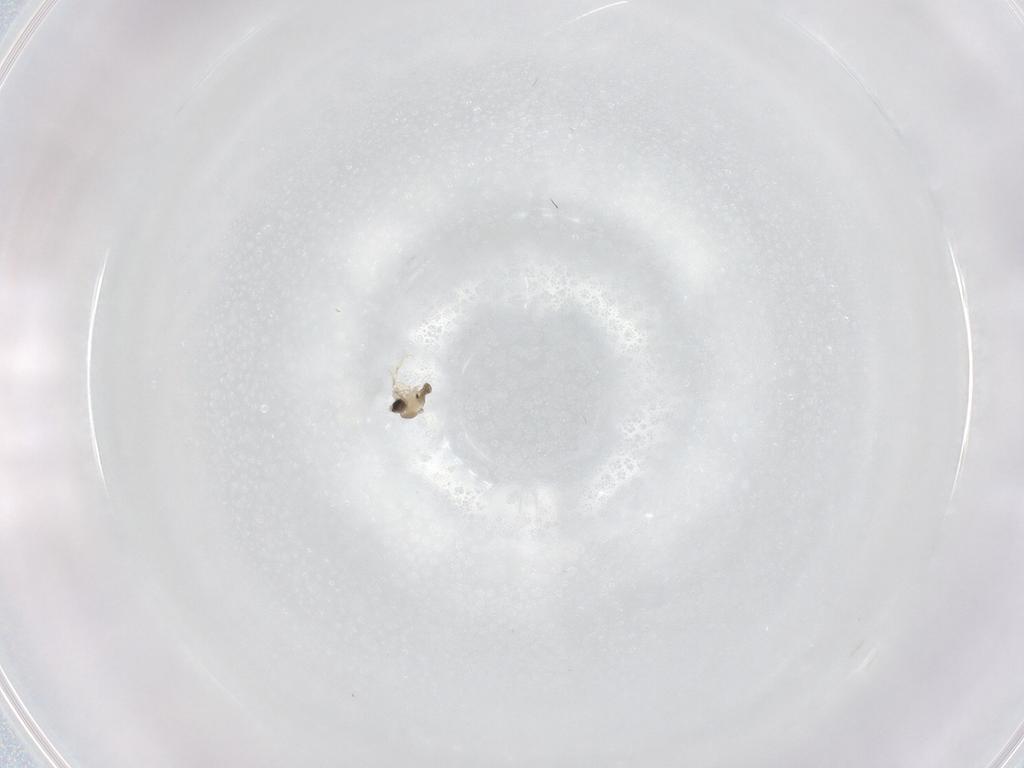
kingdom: Animalia
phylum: Arthropoda
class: Insecta
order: Diptera
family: Cecidomyiidae
